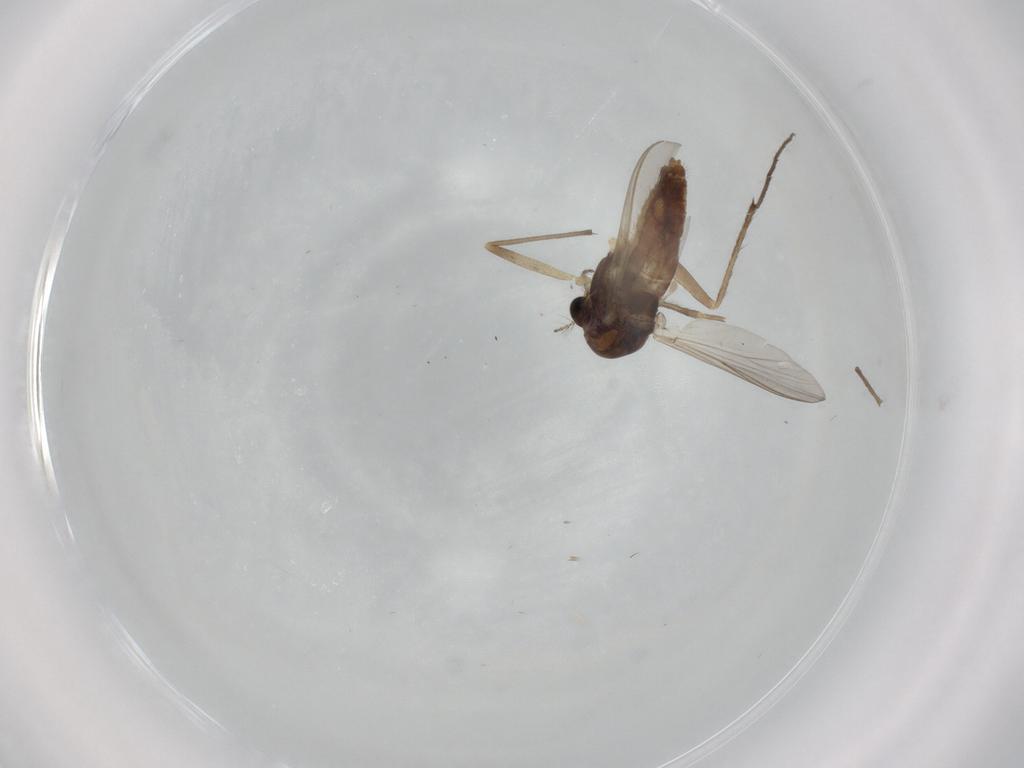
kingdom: Animalia
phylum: Arthropoda
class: Insecta
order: Diptera
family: Chironomidae
